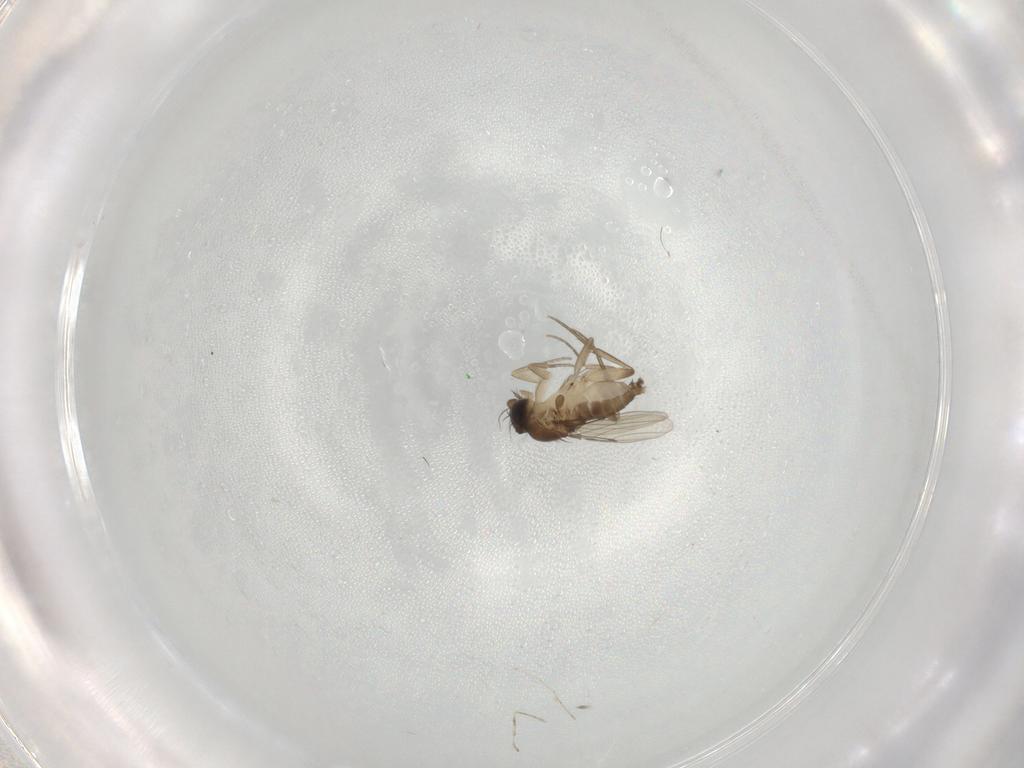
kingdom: Animalia
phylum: Arthropoda
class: Insecta
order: Diptera
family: Phoridae
